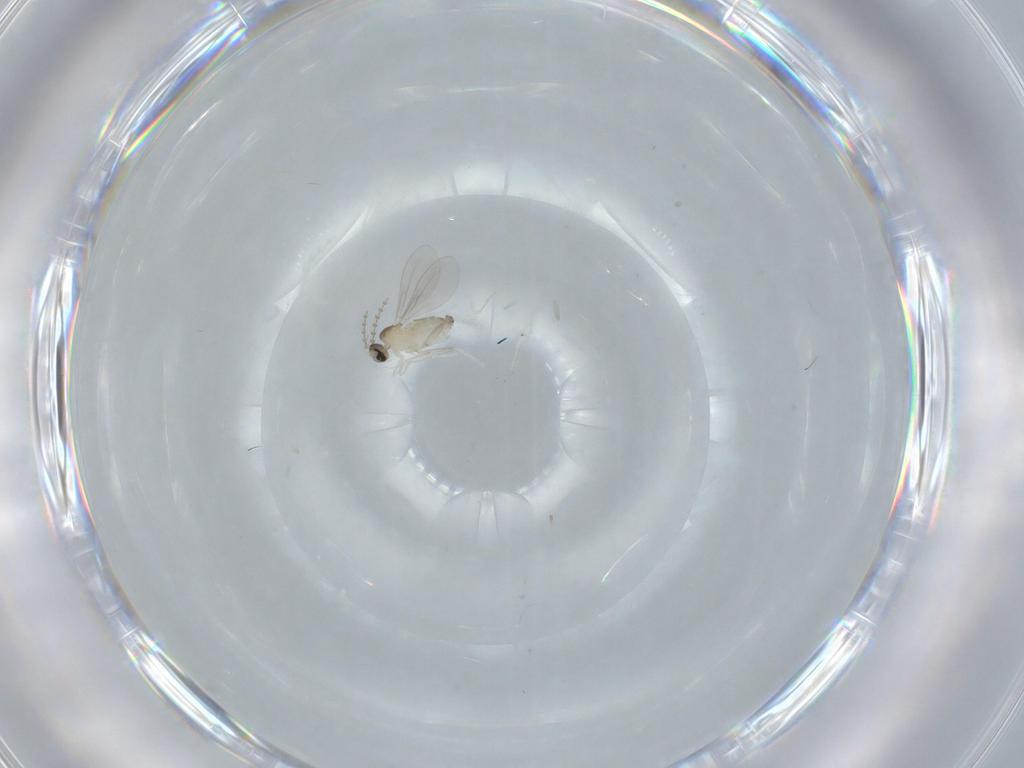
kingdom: Animalia
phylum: Arthropoda
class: Insecta
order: Diptera
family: Cecidomyiidae
